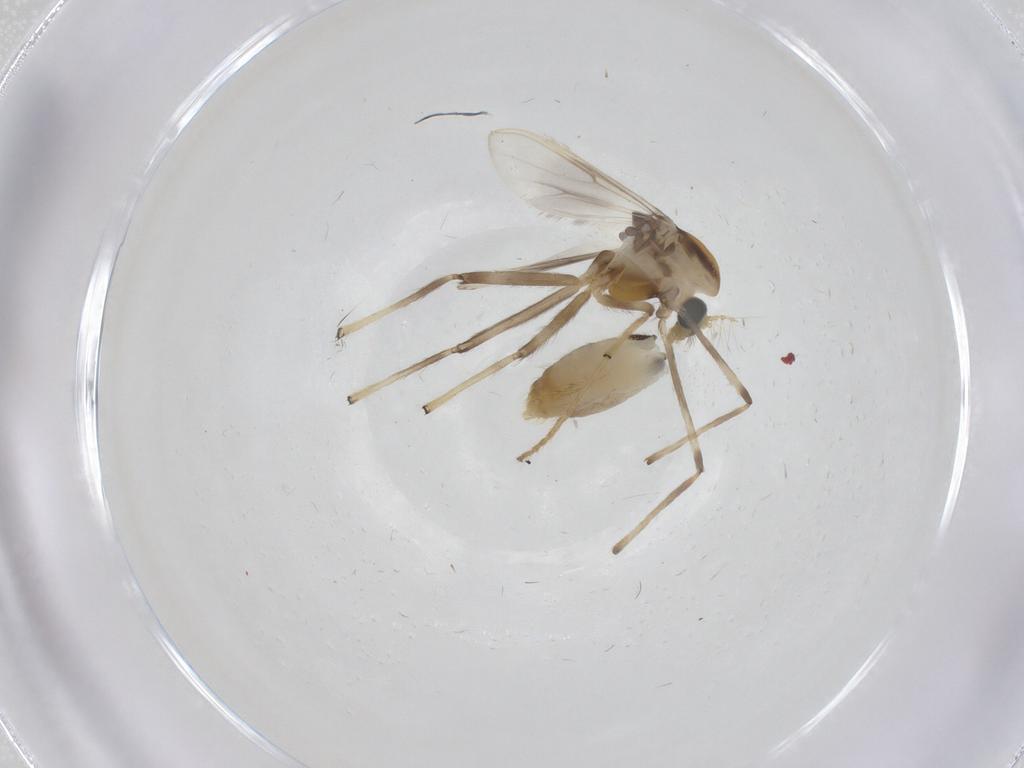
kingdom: Animalia
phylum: Arthropoda
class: Insecta
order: Diptera
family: Chironomidae
